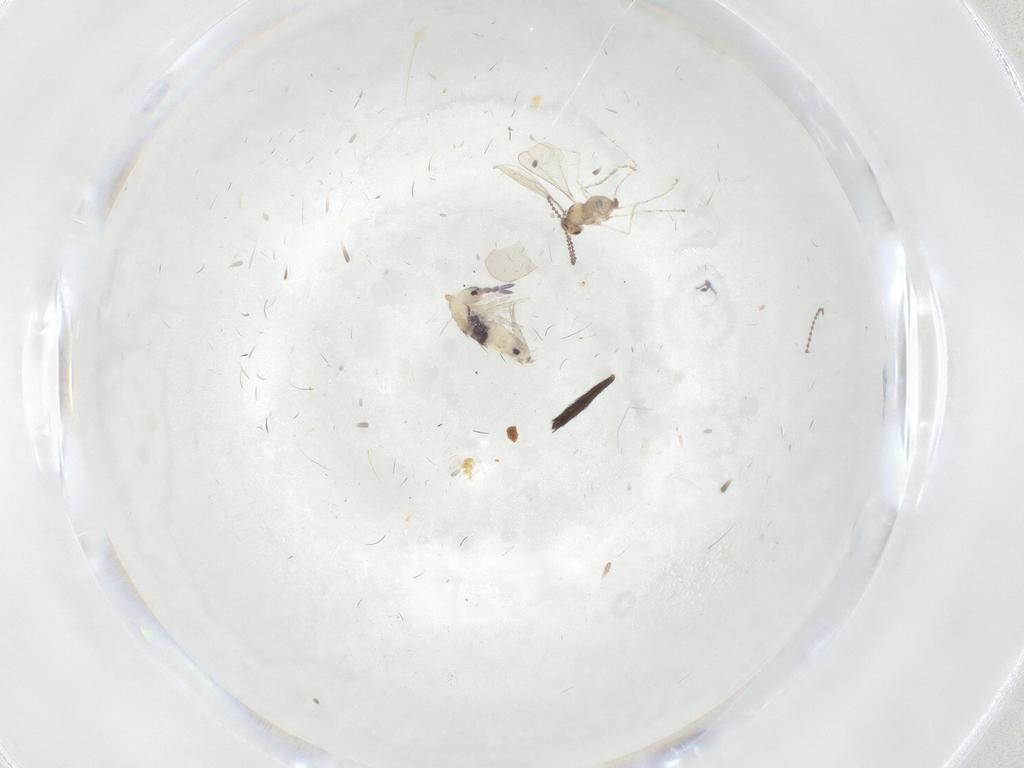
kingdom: Animalia
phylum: Arthropoda
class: Insecta
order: Diptera
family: Cecidomyiidae
